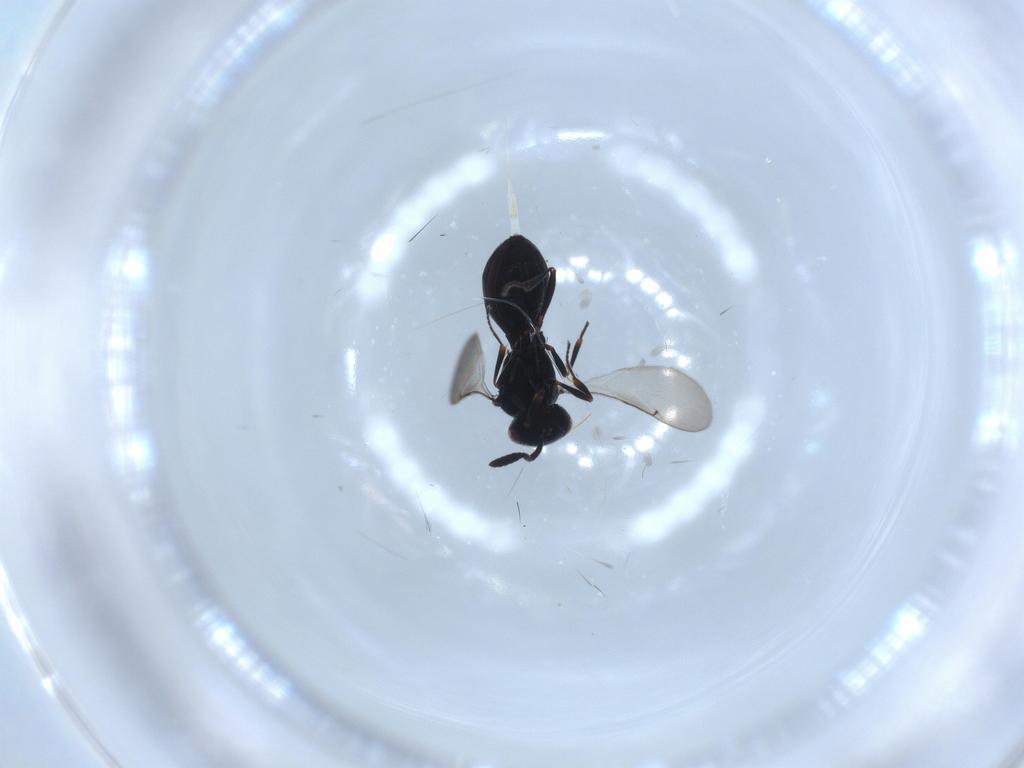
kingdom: Animalia
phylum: Arthropoda
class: Insecta
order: Hymenoptera
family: Scelionidae
